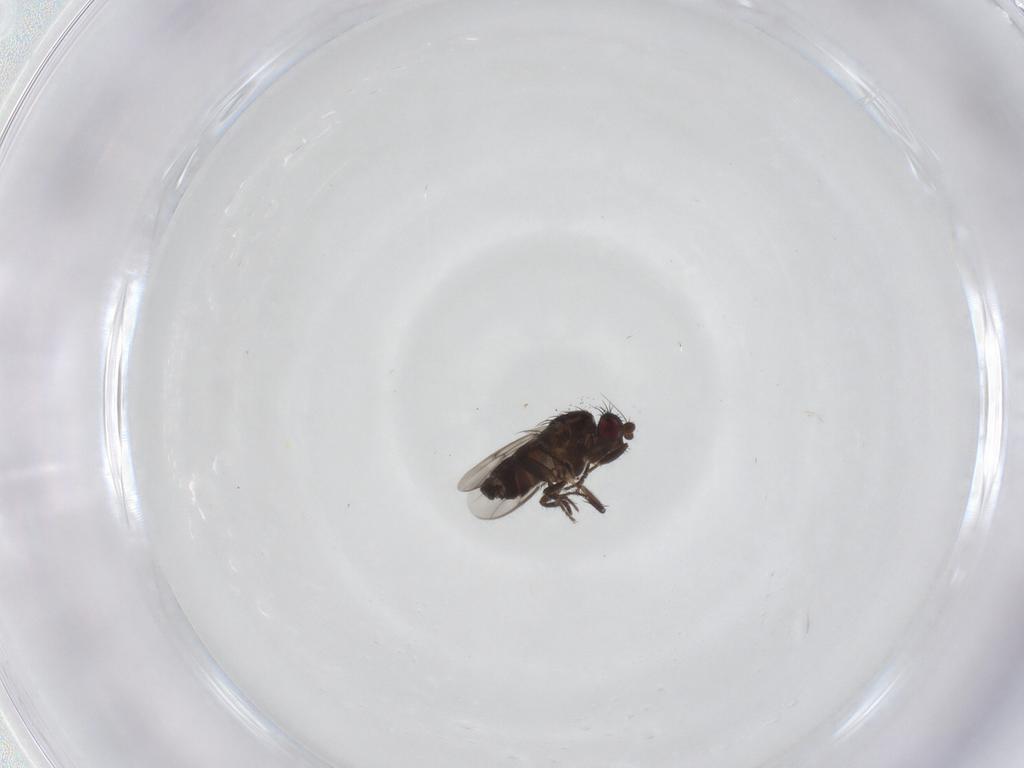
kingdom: Animalia
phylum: Arthropoda
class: Insecta
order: Diptera
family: Sphaeroceridae
